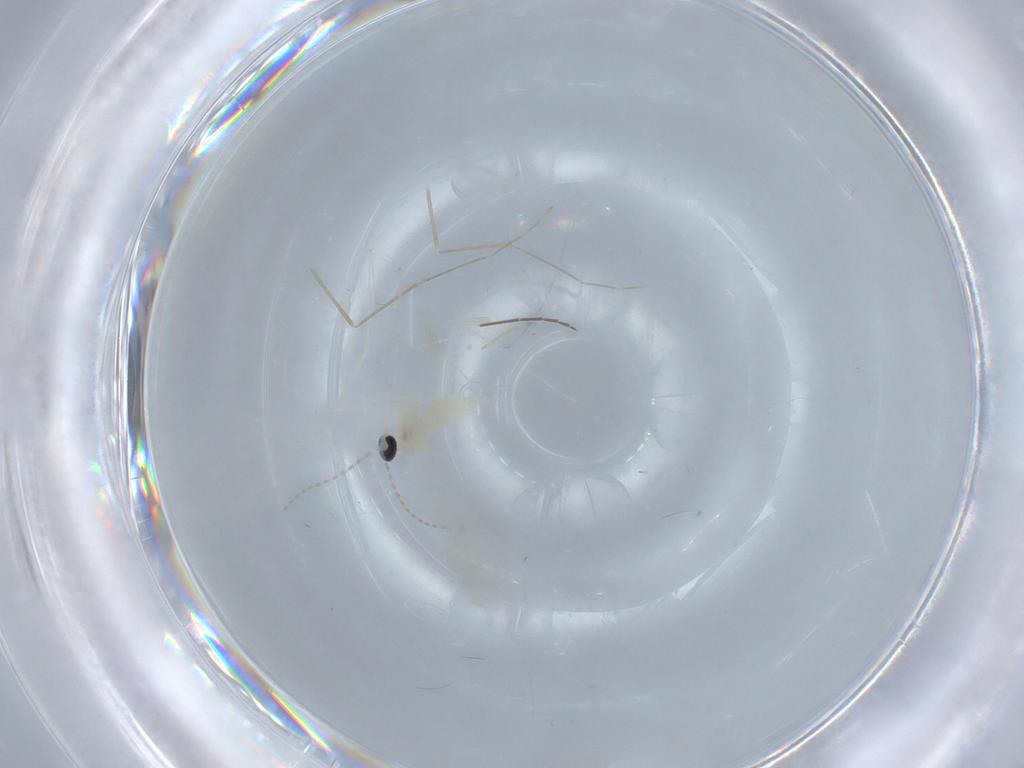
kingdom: Animalia
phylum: Arthropoda
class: Insecta
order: Diptera
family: Cecidomyiidae
